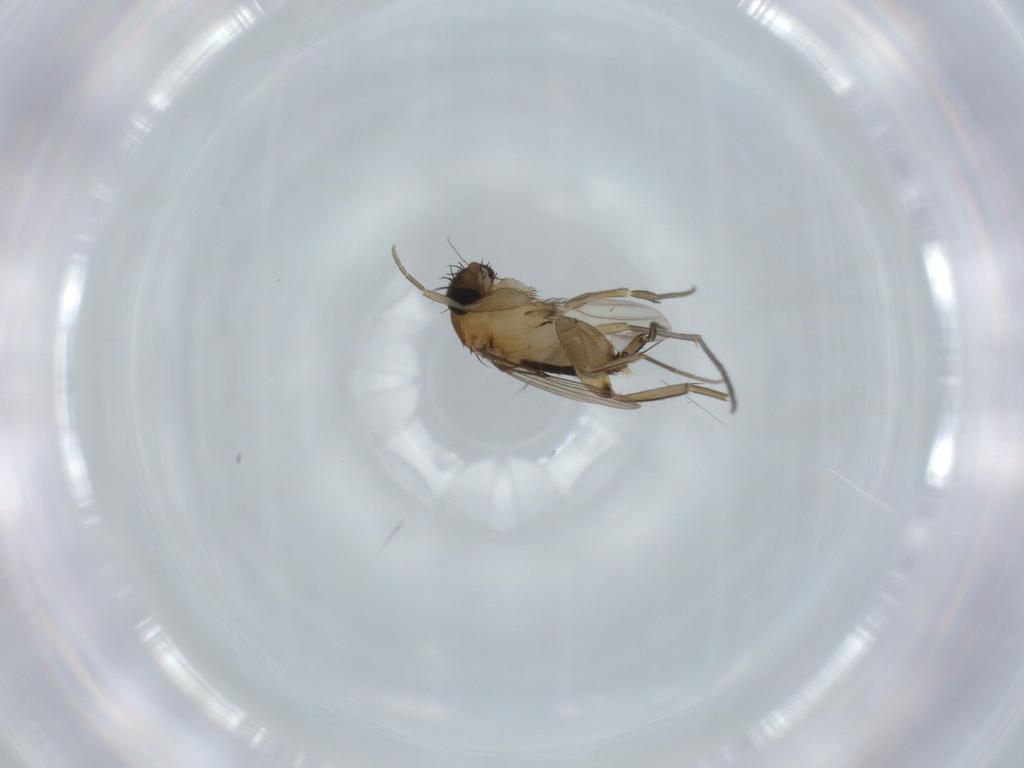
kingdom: Animalia
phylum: Arthropoda
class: Insecta
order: Diptera
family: Phoridae
